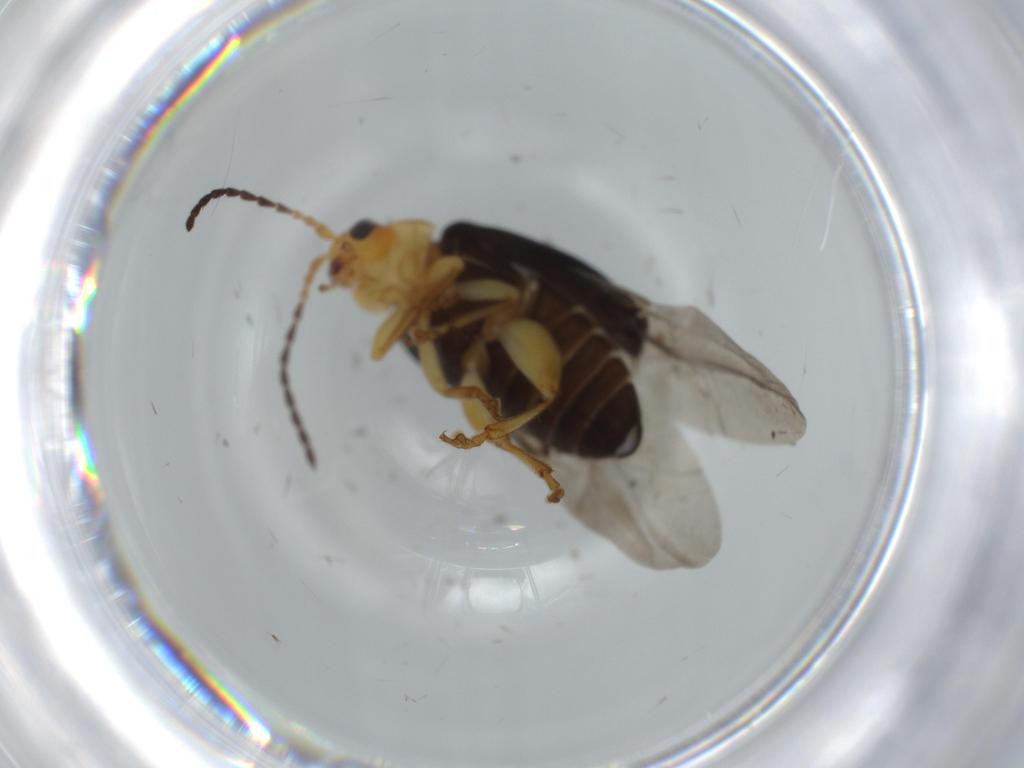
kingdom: Animalia
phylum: Arthropoda
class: Insecta
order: Coleoptera
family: Chrysomelidae
